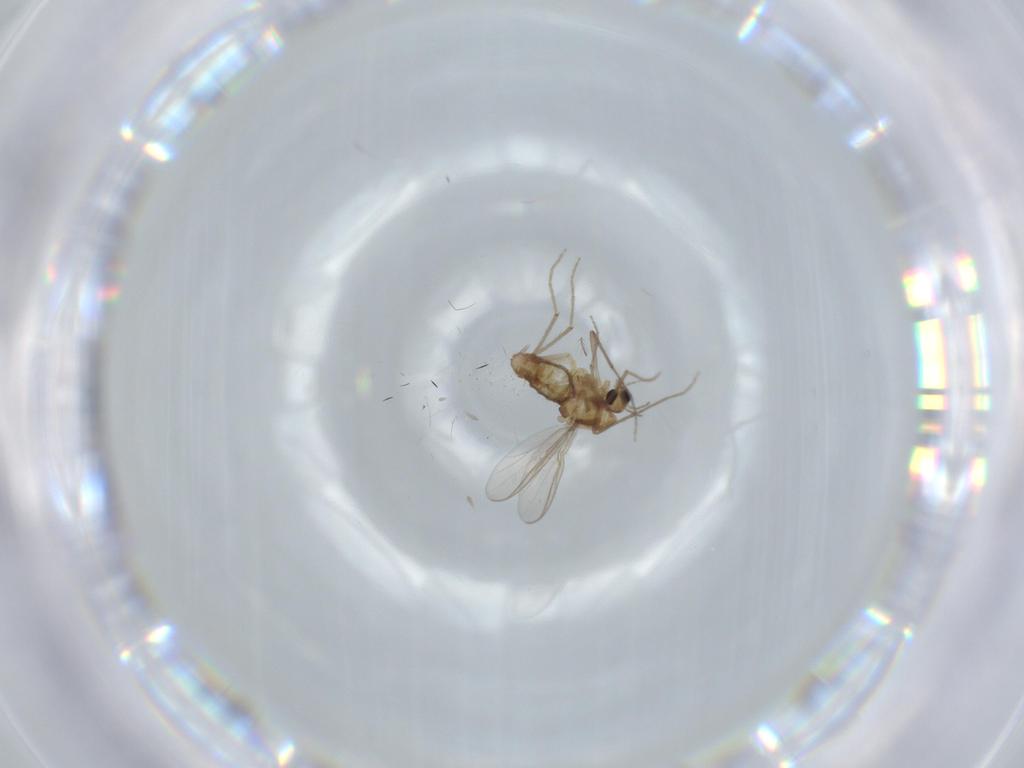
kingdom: Animalia
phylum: Arthropoda
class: Insecta
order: Diptera
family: Chironomidae
